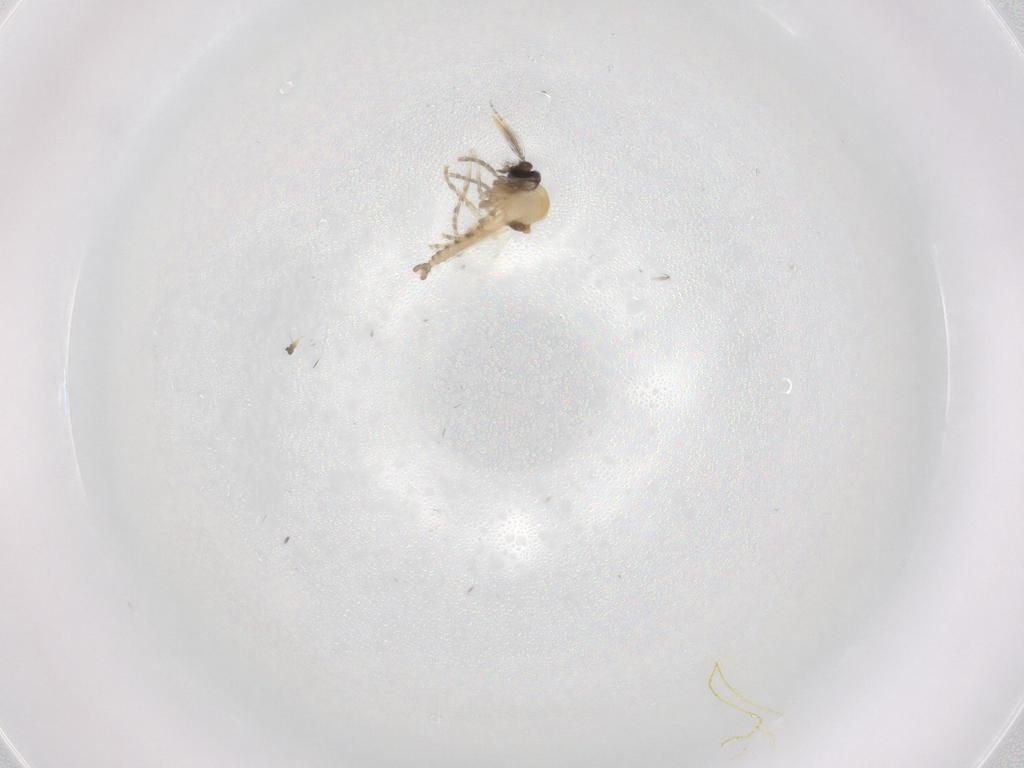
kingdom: Animalia
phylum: Arthropoda
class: Insecta
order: Diptera
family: Ceratopogonidae
